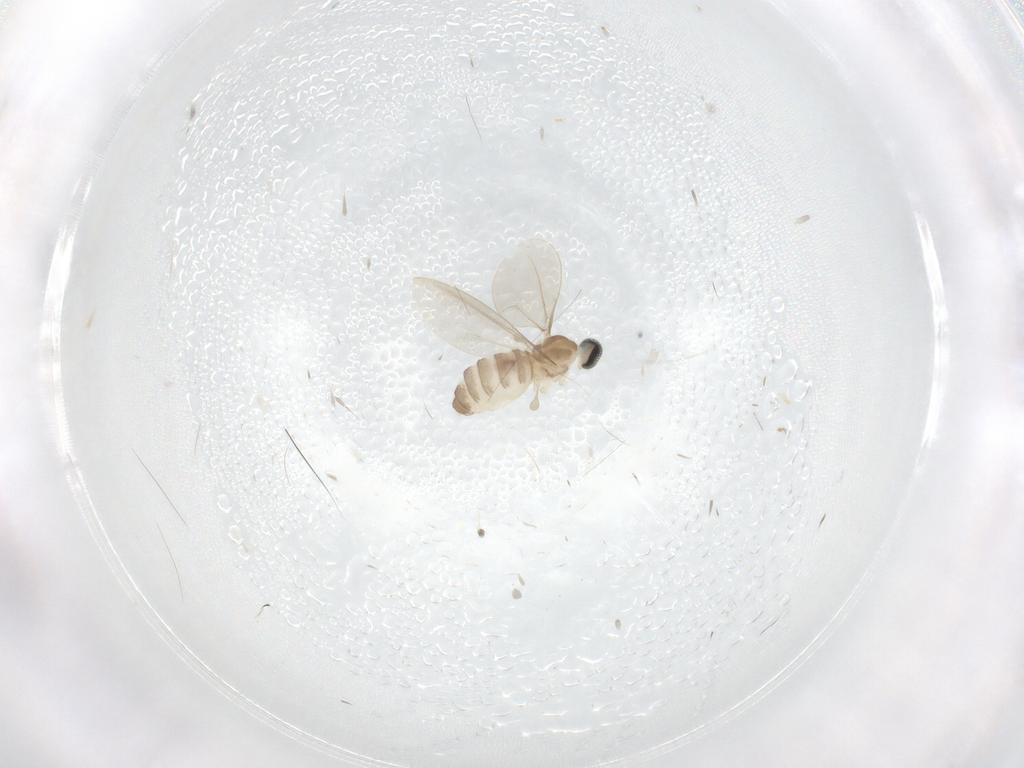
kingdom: Animalia
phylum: Arthropoda
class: Insecta
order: Diptera
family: Cecidomyiidae
